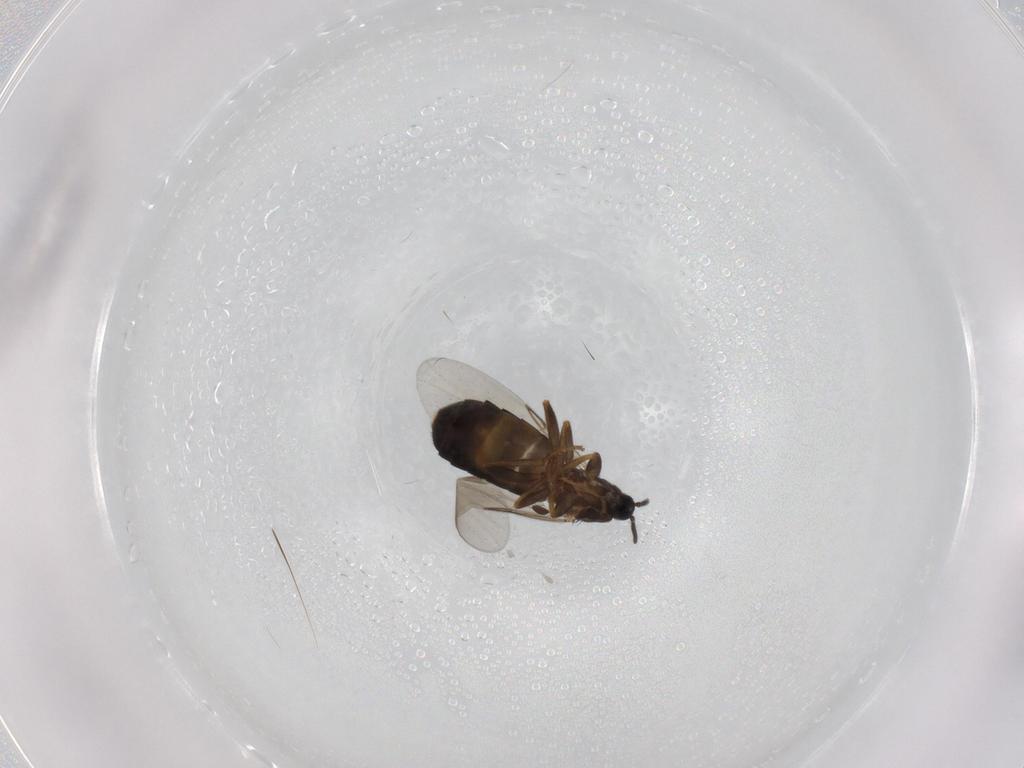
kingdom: Animalia
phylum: Arthropoda
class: Insecta
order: Diptera
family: Scatopsidae
